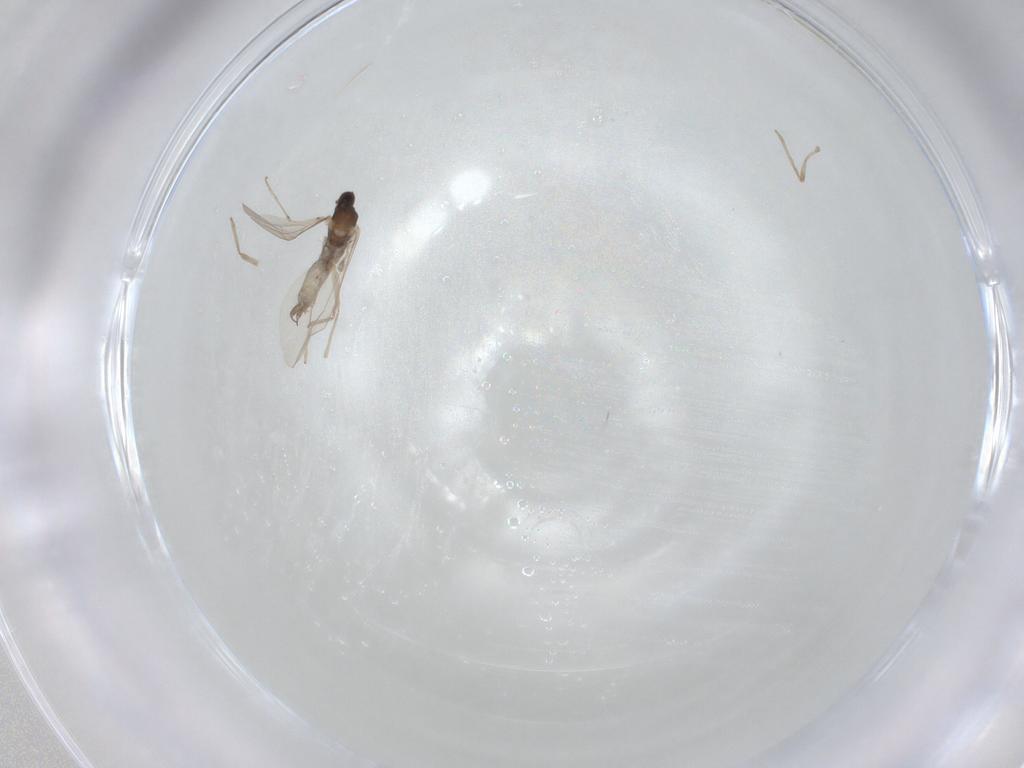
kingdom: Animalia
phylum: Arthropoda
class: Insecta
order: Diptera
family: Cecidomyiidae
